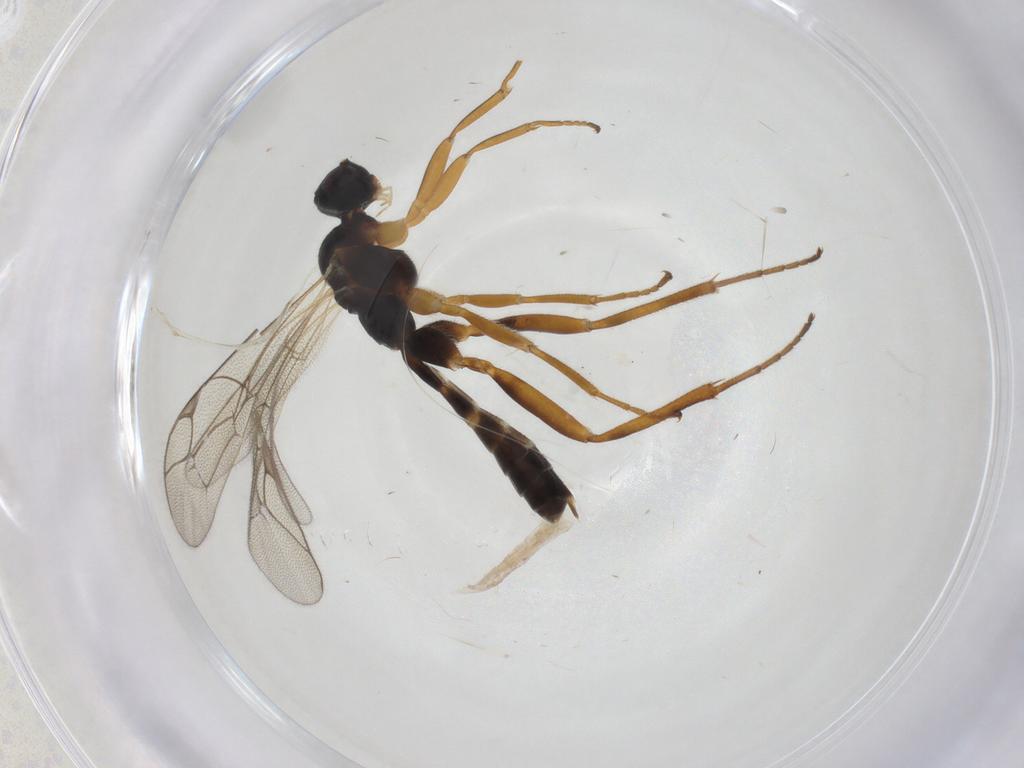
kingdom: Animalia
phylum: Arthropoda
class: Insecta
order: Hymenoptera
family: Ichneumonidae
